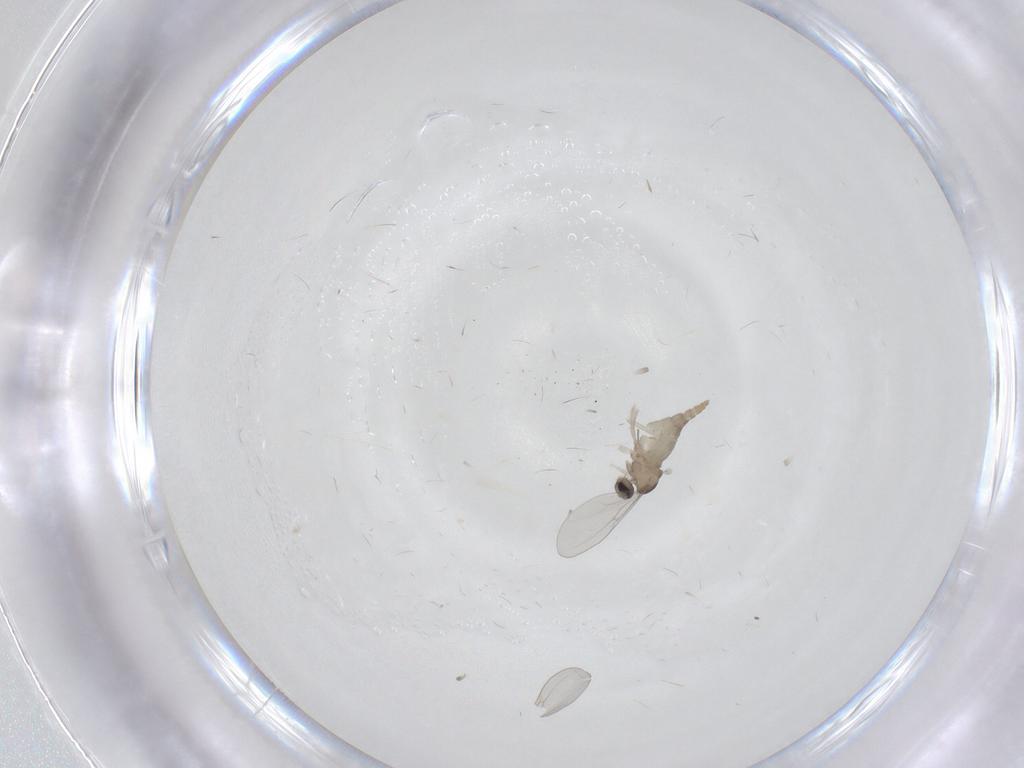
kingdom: Animalia
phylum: Arthropoda
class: Insecta
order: Diptera
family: Cecidomyiidae
